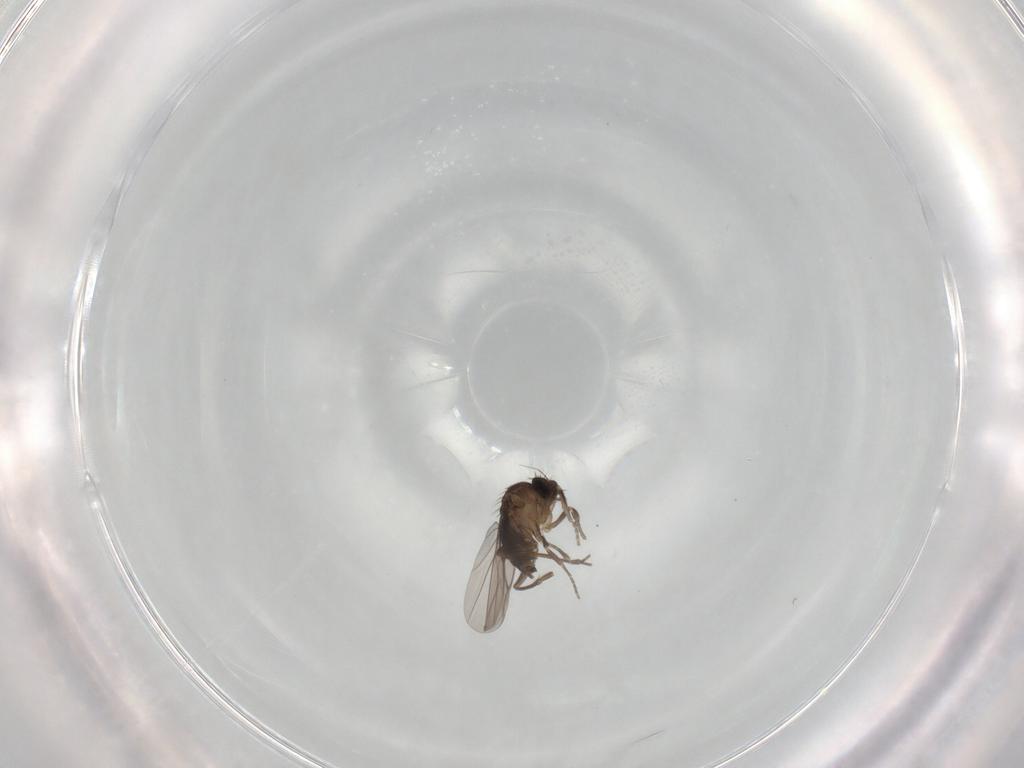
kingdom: Animalia
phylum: Arthropoda
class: Insecta
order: Diptera
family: Phoridae
